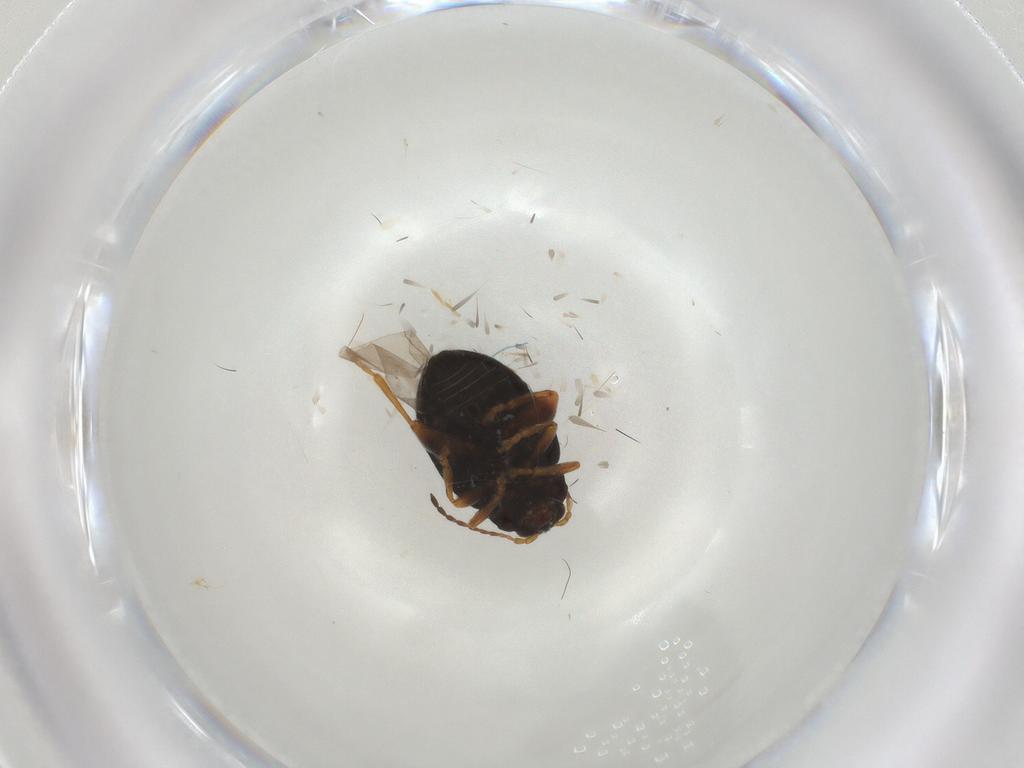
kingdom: Animalia
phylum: Arthropoda
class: Insecta
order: Coleoptera
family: Chrysomelidae
